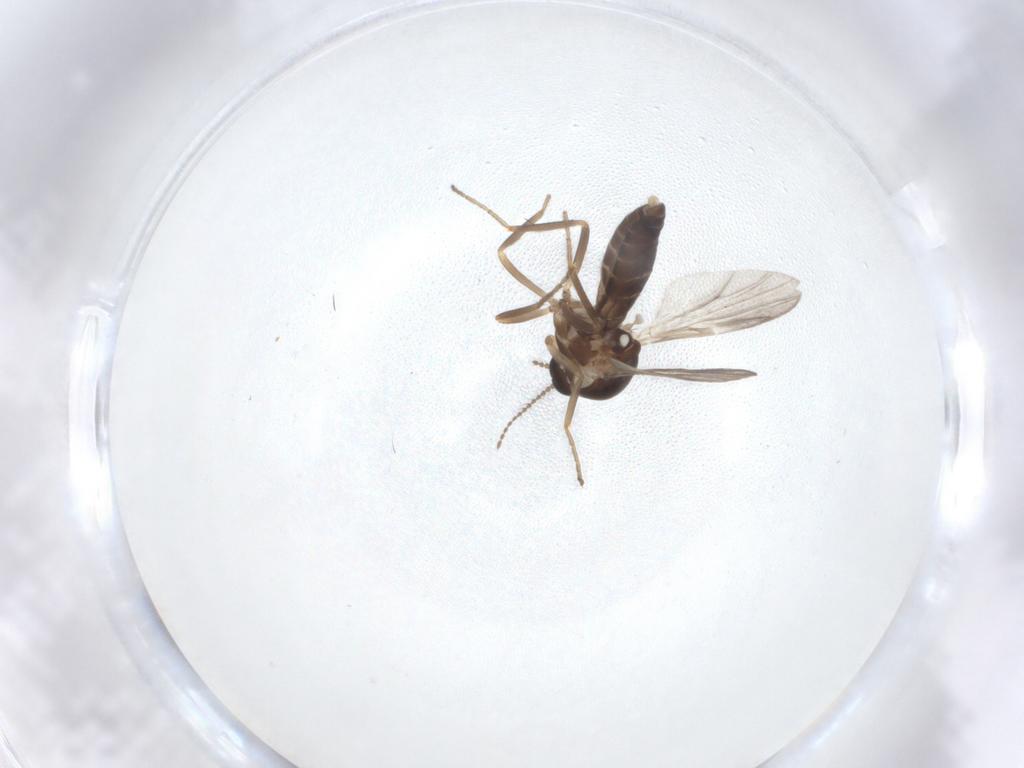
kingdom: Animalia
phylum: Arthropoda
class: Insecta
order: Diptera
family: Ceratopogonidae
